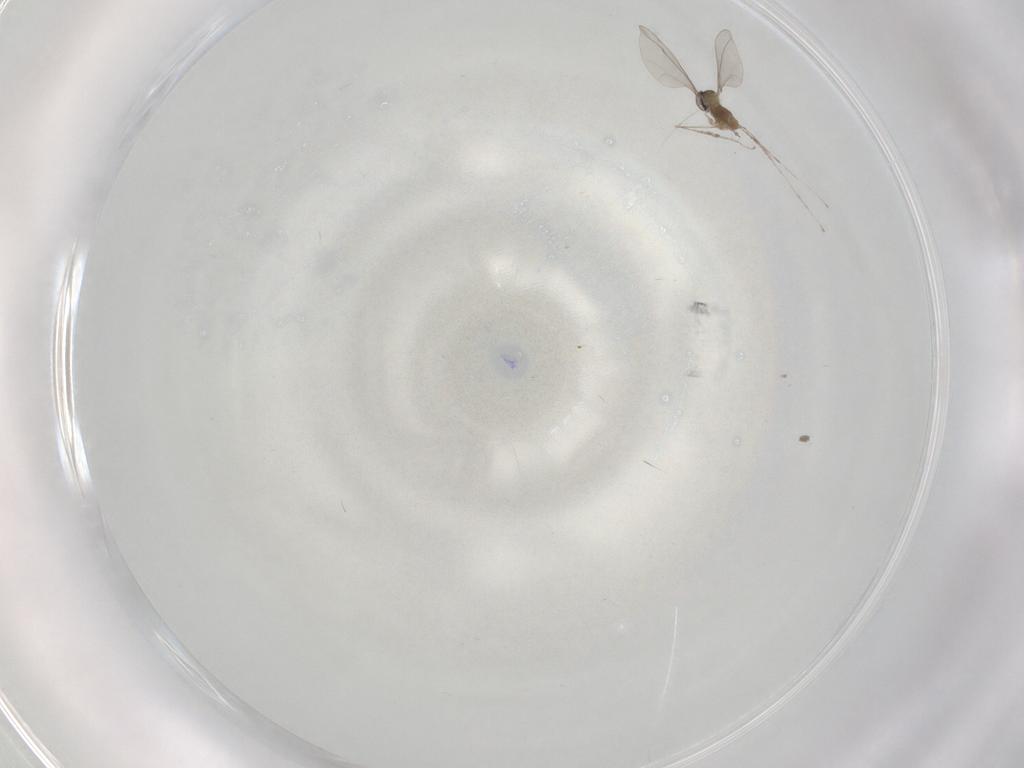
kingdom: Animalia
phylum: Arthropoda
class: Insecta
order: Diptera
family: Cecidomyiidae
